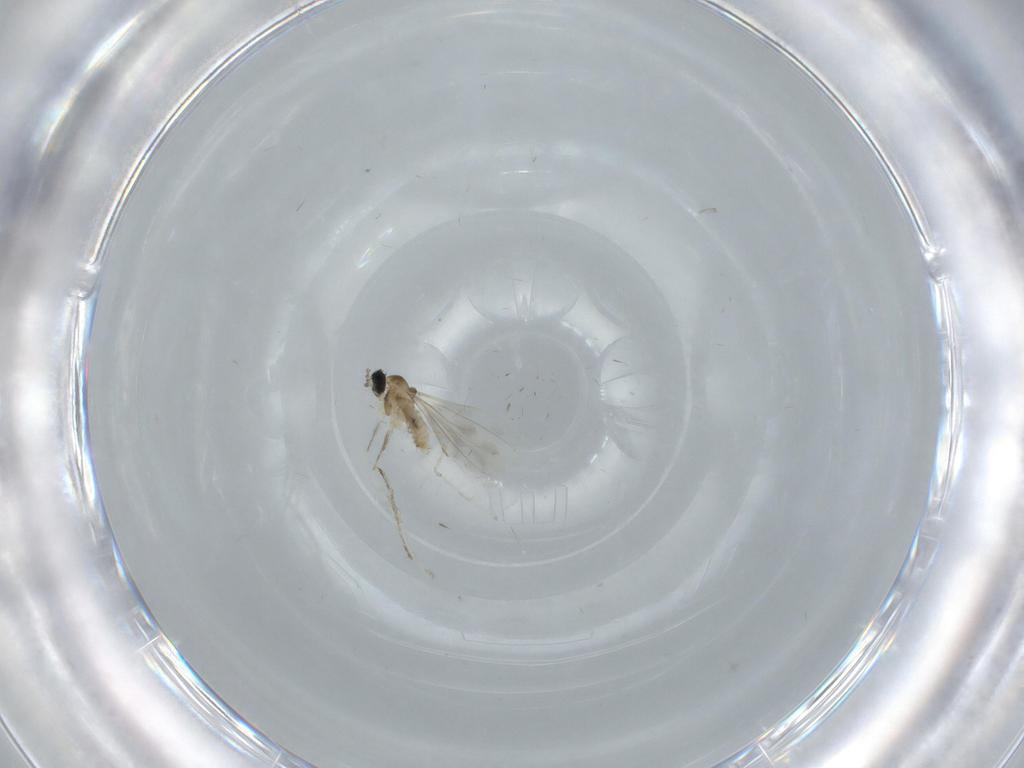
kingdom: Animalia
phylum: Arthropoda
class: Insecta
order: Diptera
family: Cecidomyiidae
